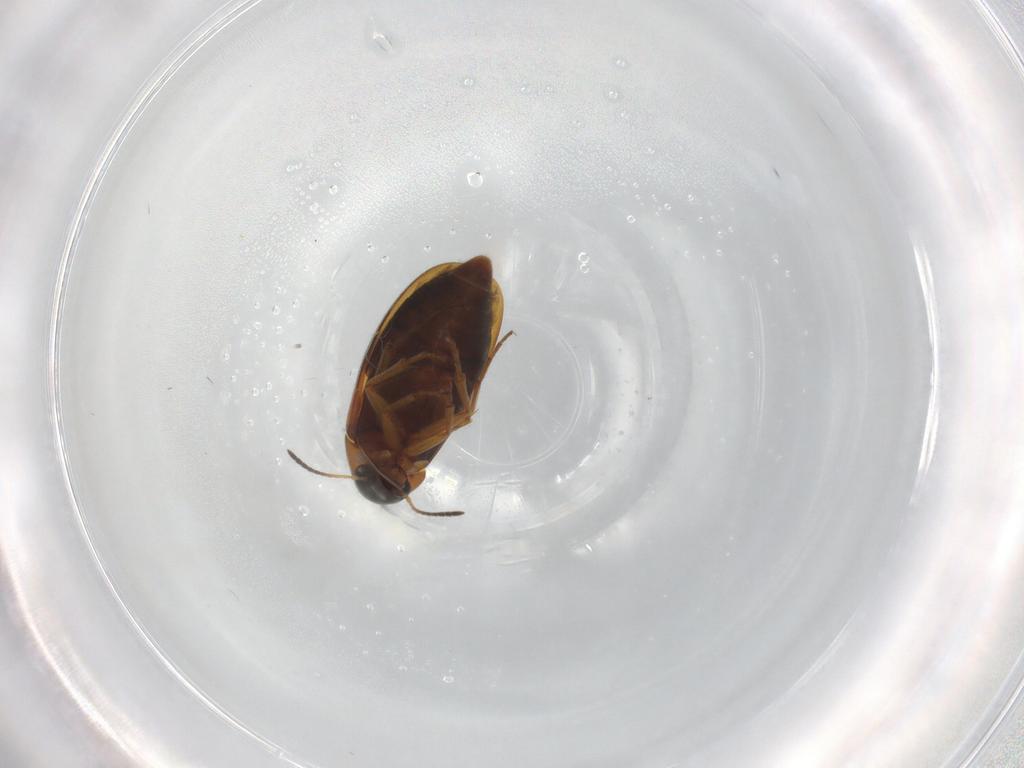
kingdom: Animalia
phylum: Arthropoda
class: Insecta
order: Coleoptera
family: Scraptiidae
